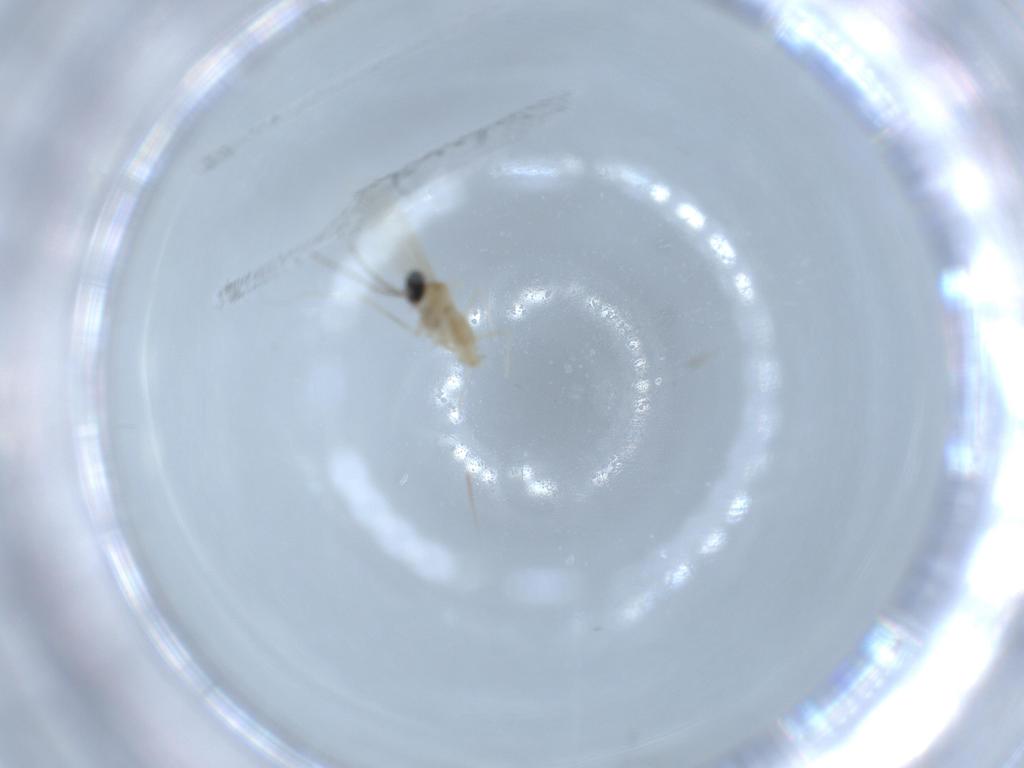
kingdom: Animalia
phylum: Arthropoda
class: Insecta
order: Diptera
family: Cecidomyiidae
